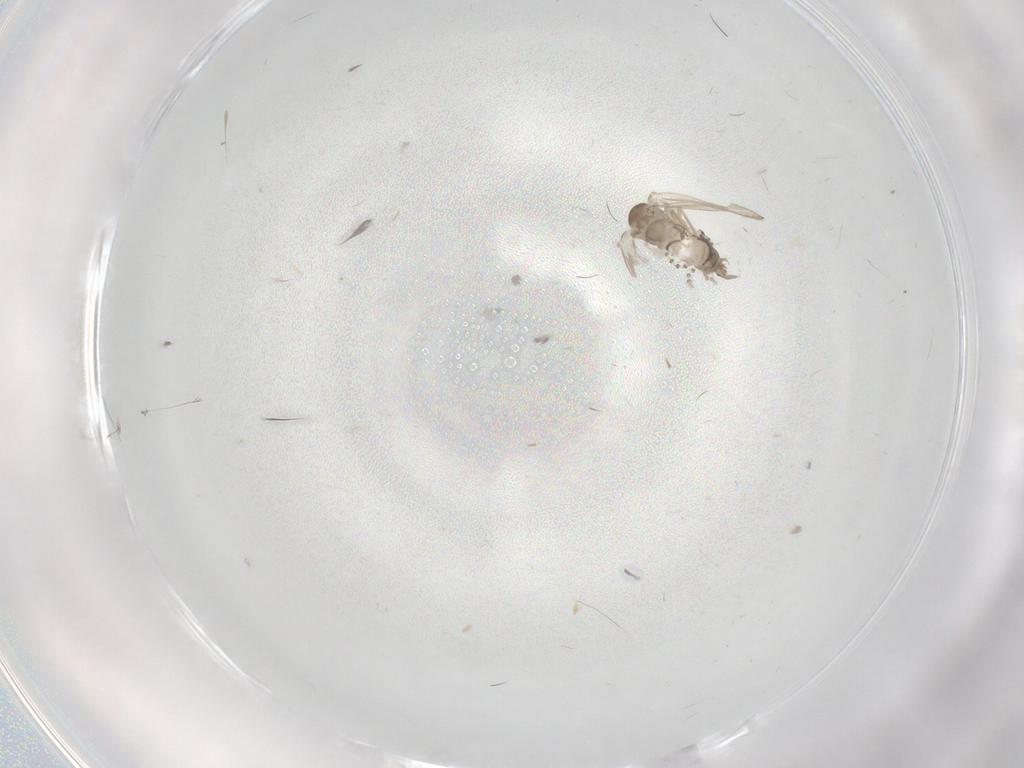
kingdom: Animalia
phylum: Arthropoda
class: Insecta
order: Diptera
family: Psychodidae
